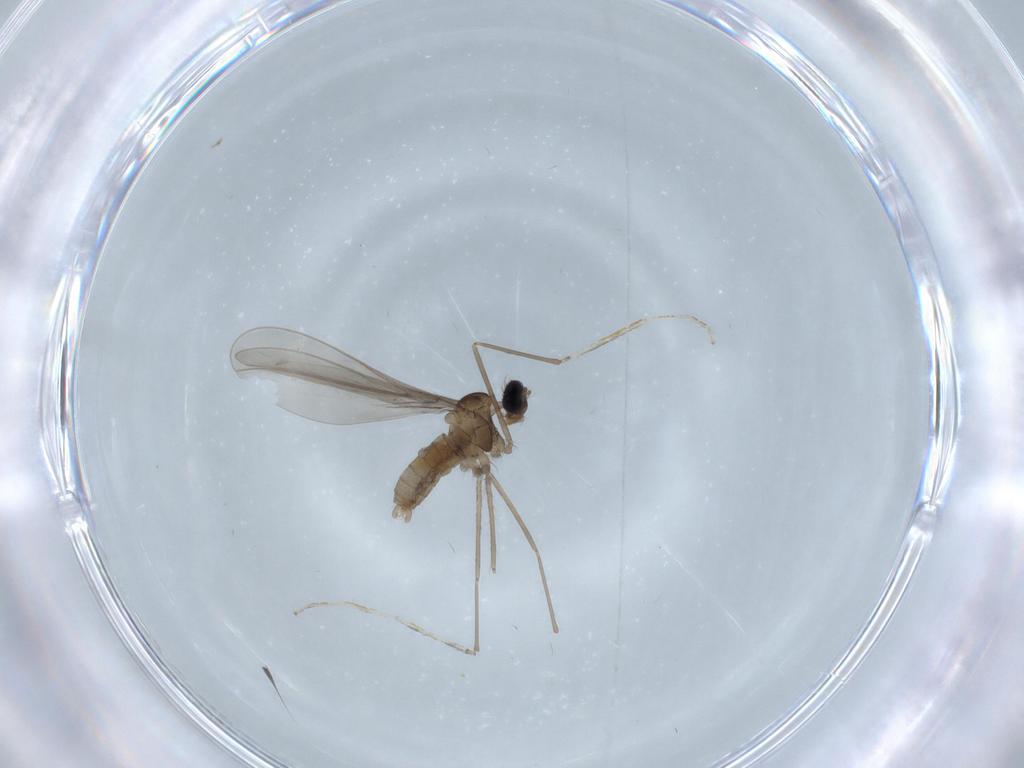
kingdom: Animalia
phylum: Arthropoda
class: Insecta
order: Diptera
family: Cecidomyiidae
